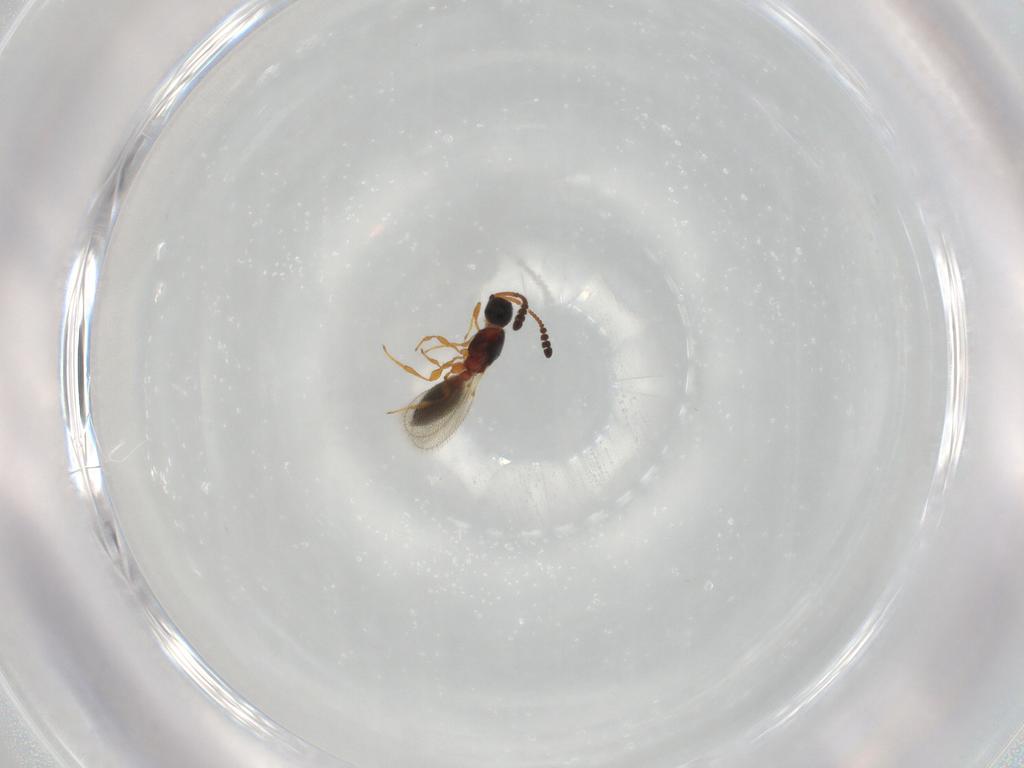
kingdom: Animalia
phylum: Arthropoda
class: Insecta
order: Hymenoptera
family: Diapriidae
